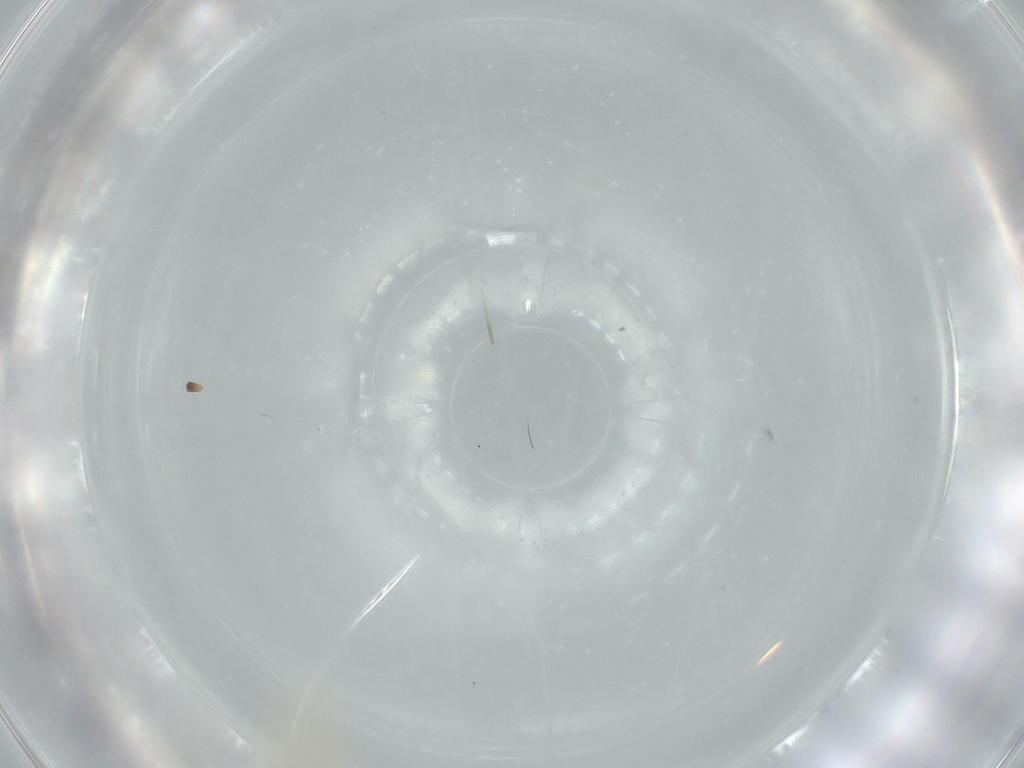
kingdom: Animalia
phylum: Arthropoda
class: Insecta
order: Diptera
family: Cecidomyiidae
